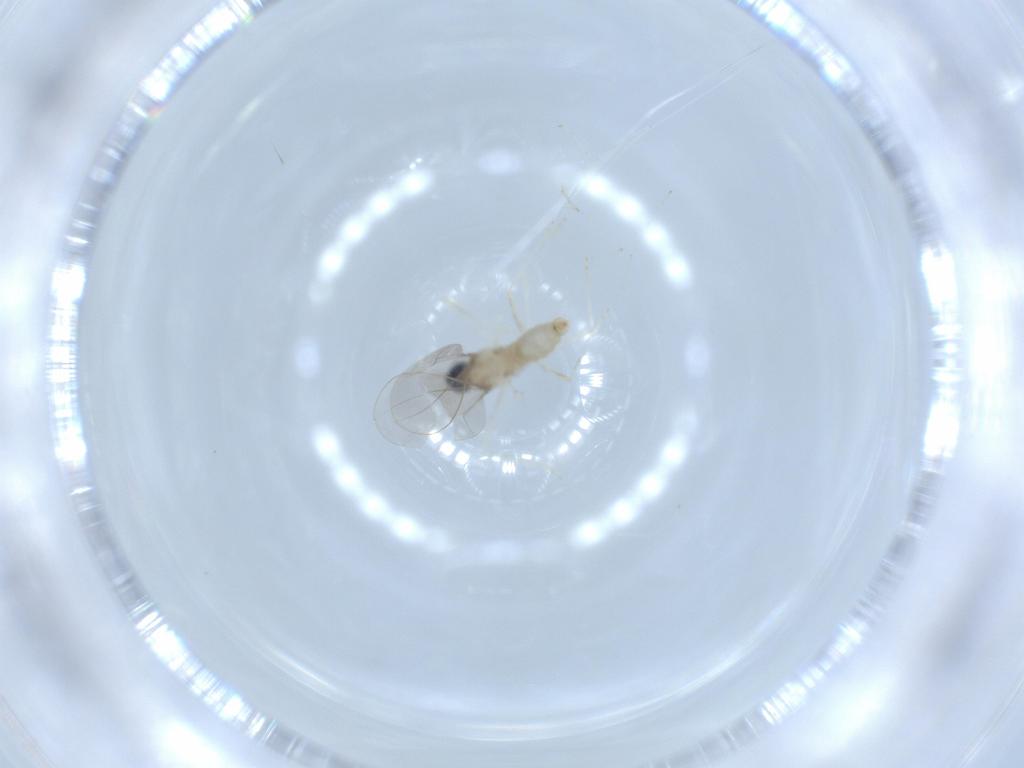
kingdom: Animalia
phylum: Arthropoda
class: Insecta
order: Diptera
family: Cecidomyiidae
